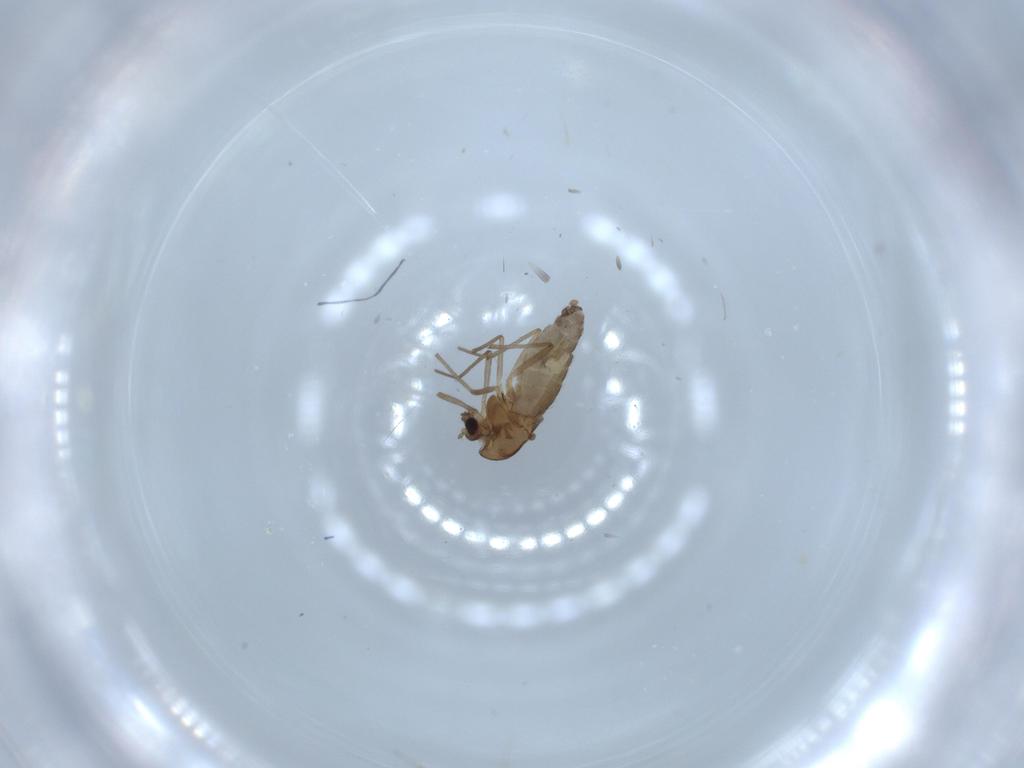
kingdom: Animalia
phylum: Arthropoda
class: Insecta
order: Diptera
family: Chironomidae
